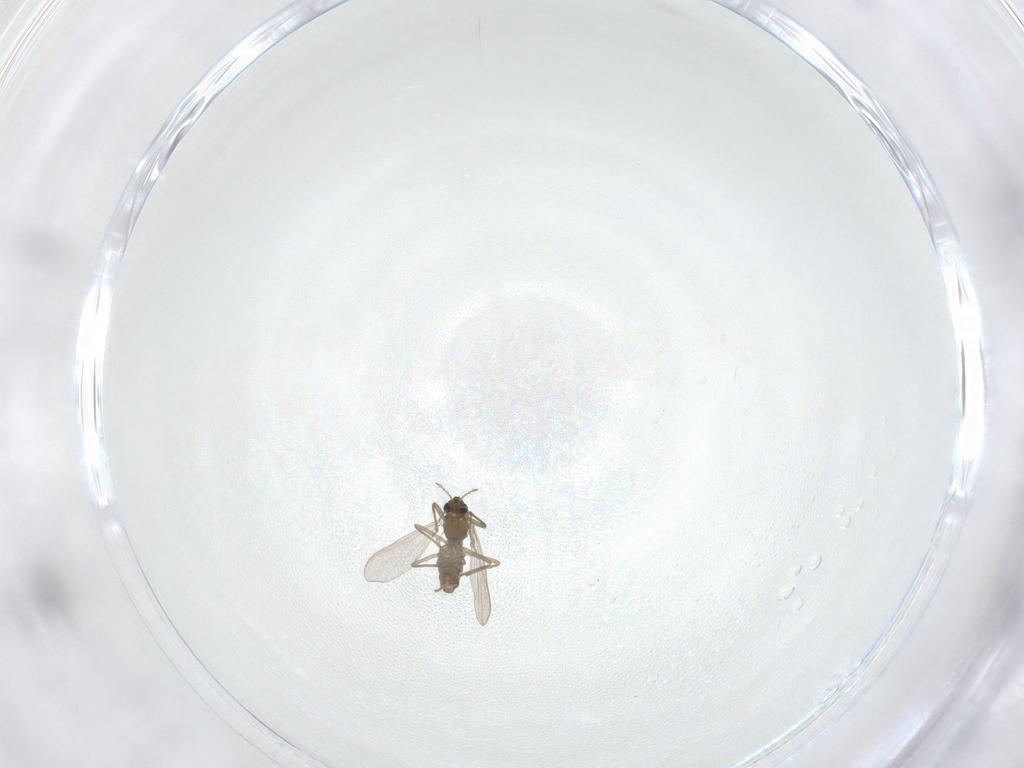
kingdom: Animalia
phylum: Arthropoda
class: Insecta
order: Diptera
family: Chironomidae
